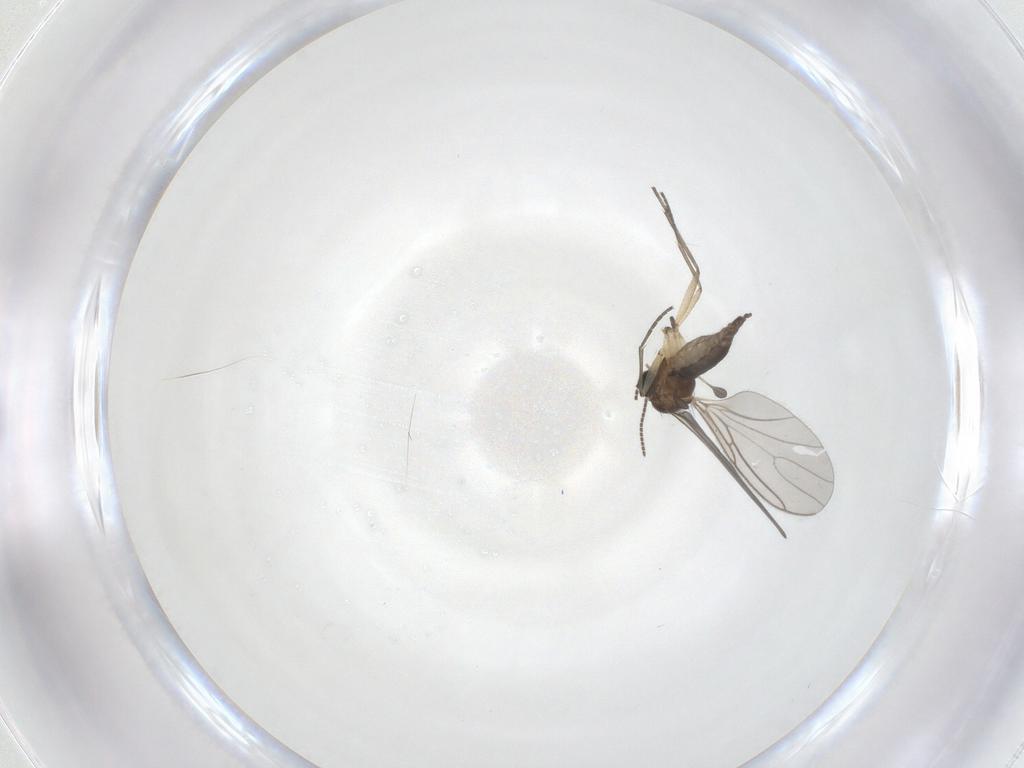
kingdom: Animalia
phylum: Arthropoda
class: Insecta
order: Diptera
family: Sciaridae
